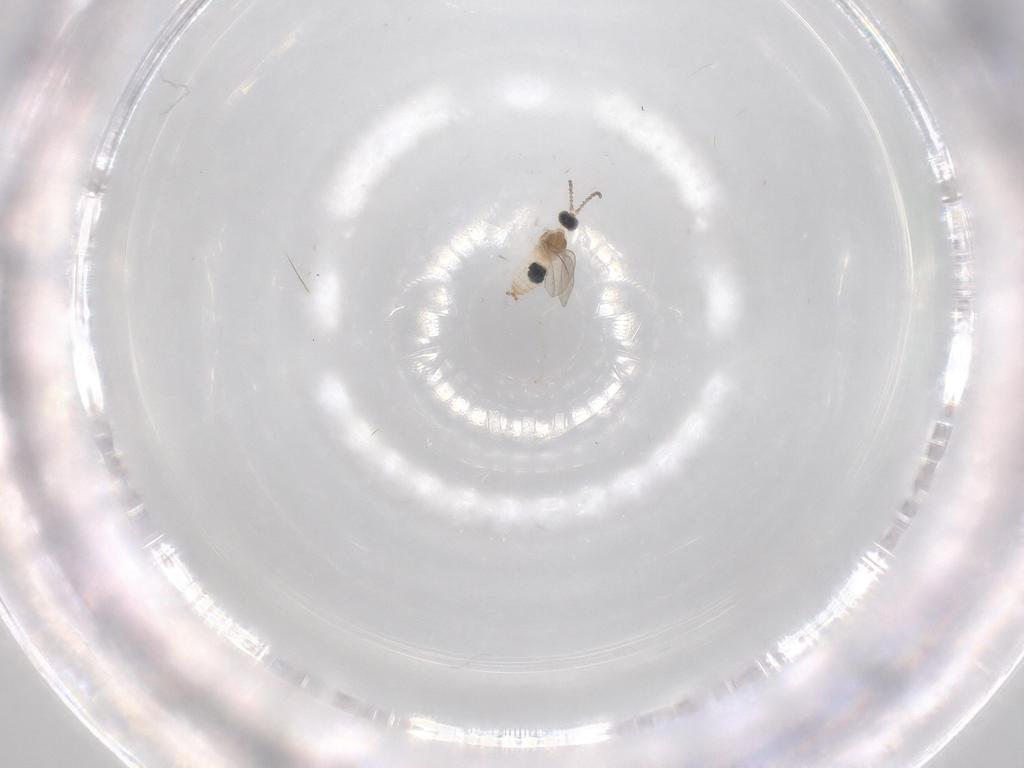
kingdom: Animalia
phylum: Arthropoda
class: Insecta
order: Diptera
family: Cecidomyiidae
